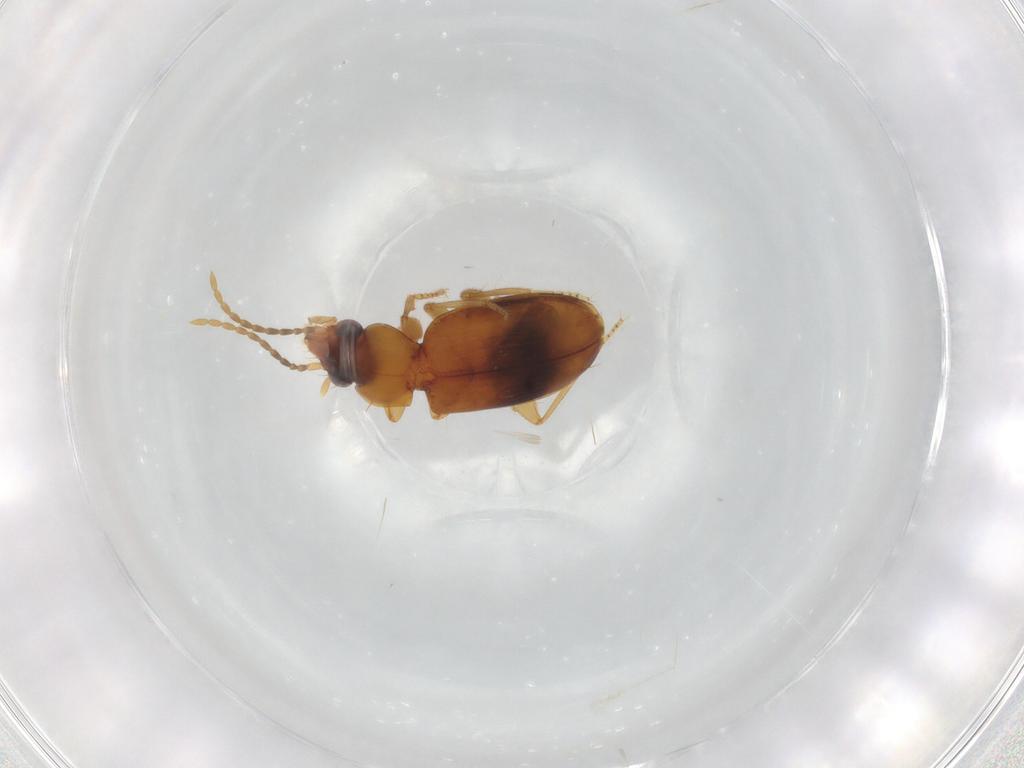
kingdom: Animalia
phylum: Arthropoda
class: Insecta
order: Coleoptera
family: Carabidae
